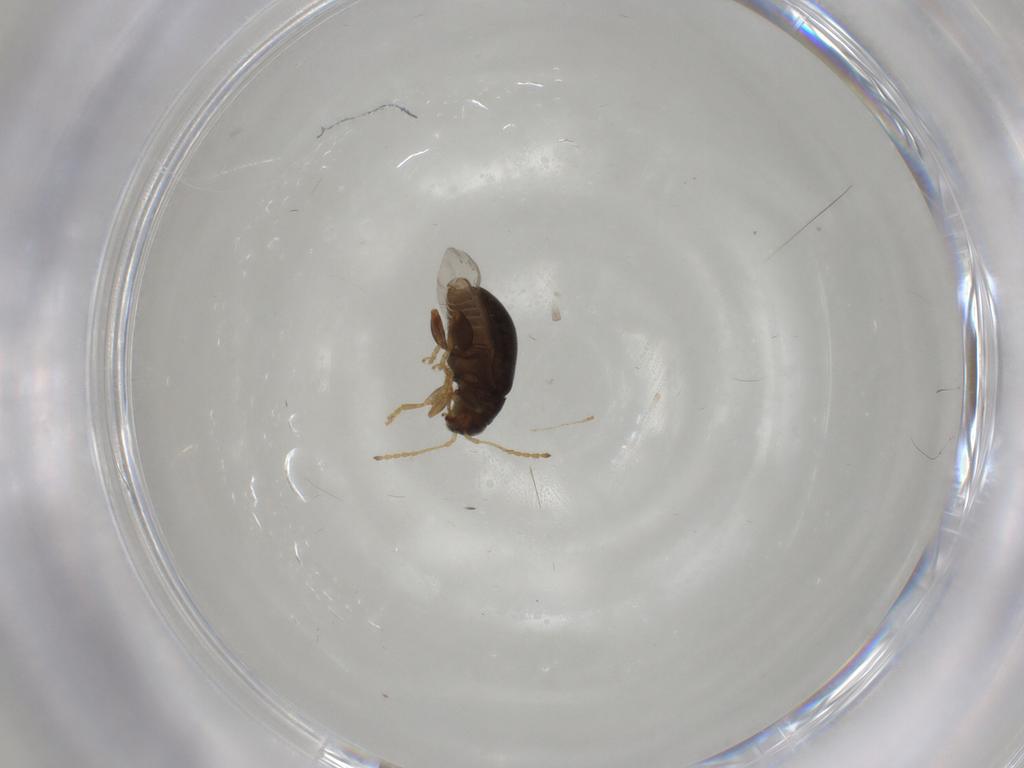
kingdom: Animalia
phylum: Arthropoda
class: Insecta
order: Coleoptera
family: Chrysomelidae
